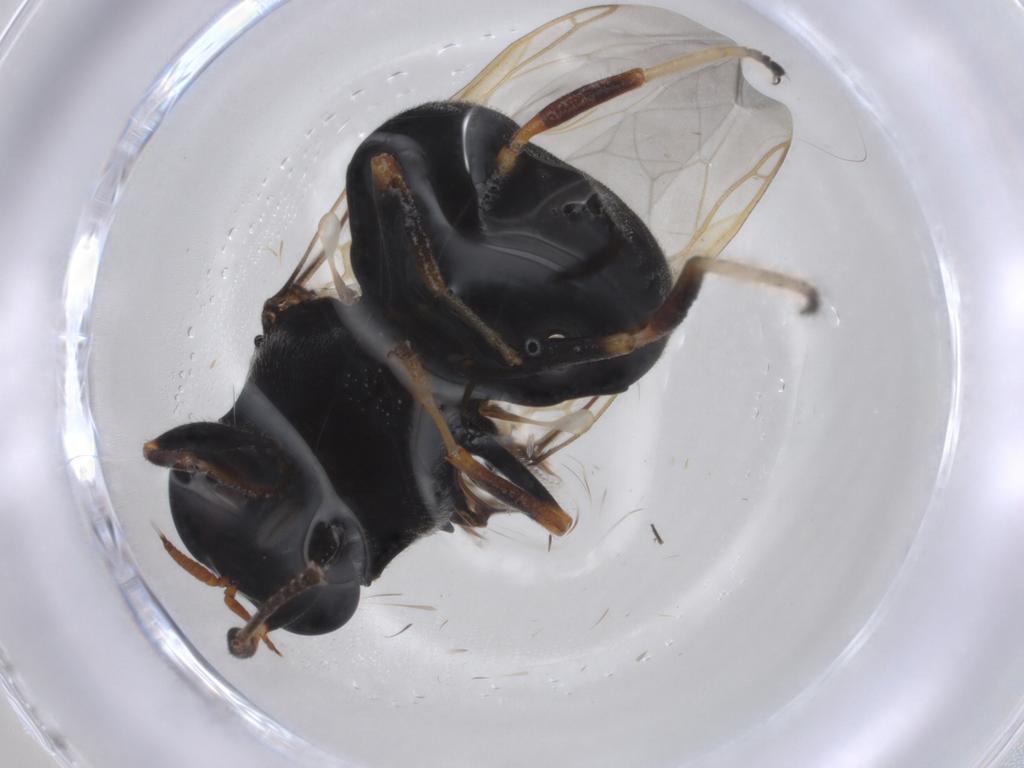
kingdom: Animalia
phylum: Arthropoda
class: Insecta
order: Diptera
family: Stratiomyidae
